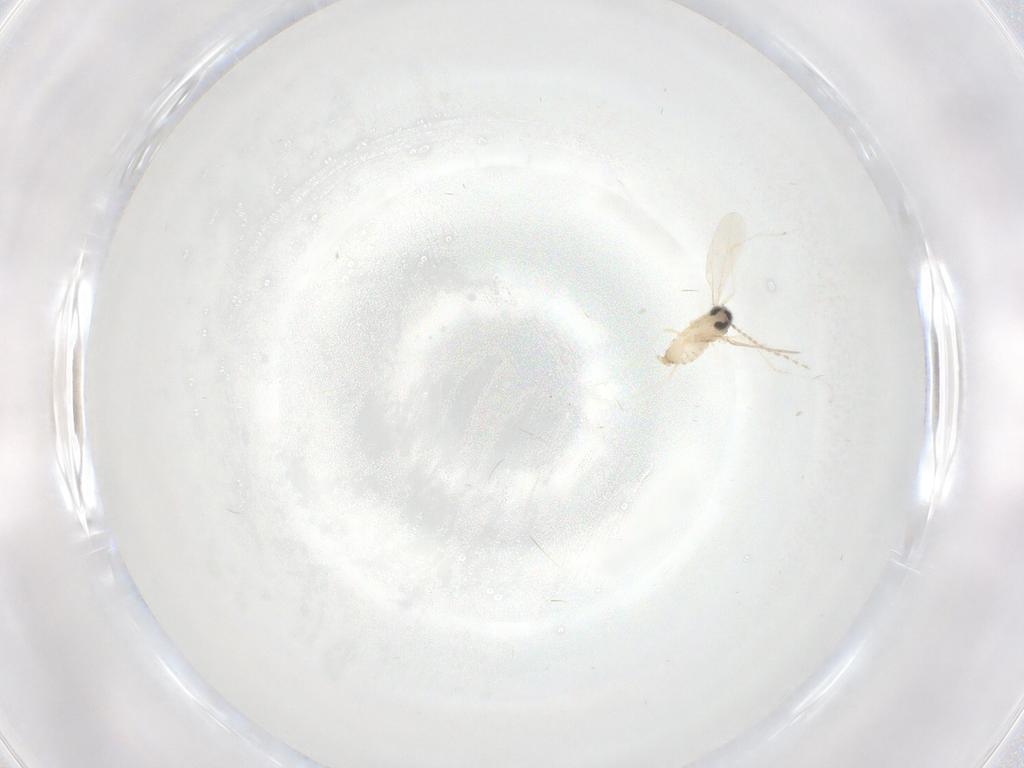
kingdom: Animalia
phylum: Arthropoda
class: Insecta
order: Diptera
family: Cecidomyiidae
